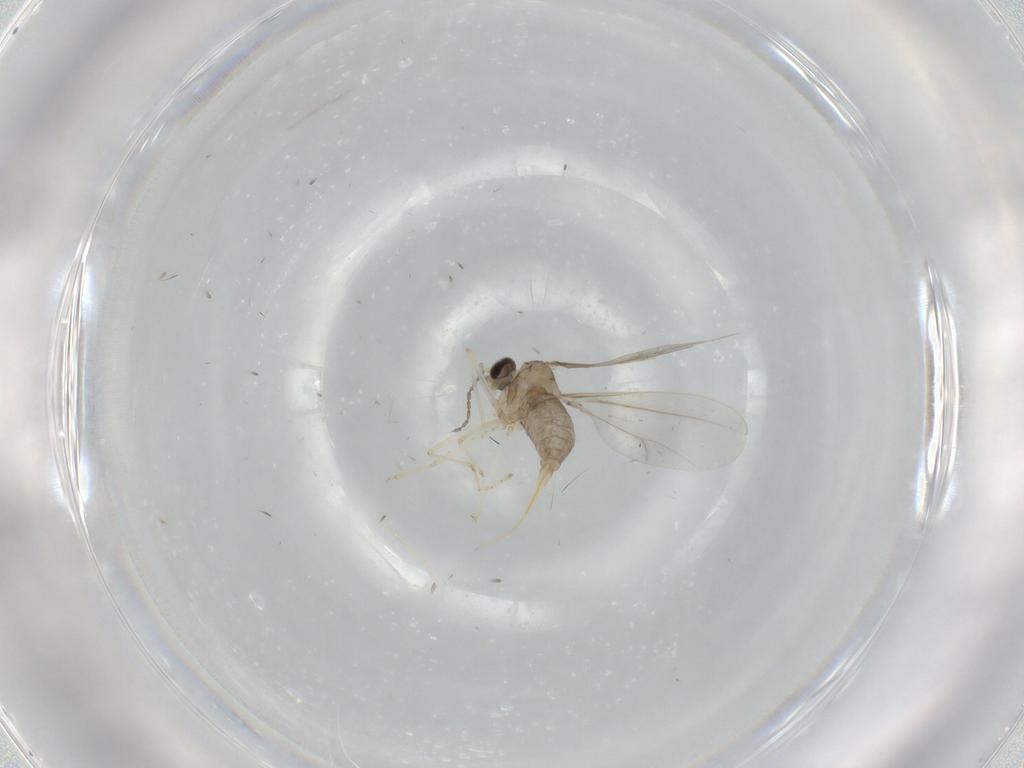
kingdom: Animalia
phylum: Arthropoda
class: Insecta
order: Diptera
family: Cecidomyiidae
